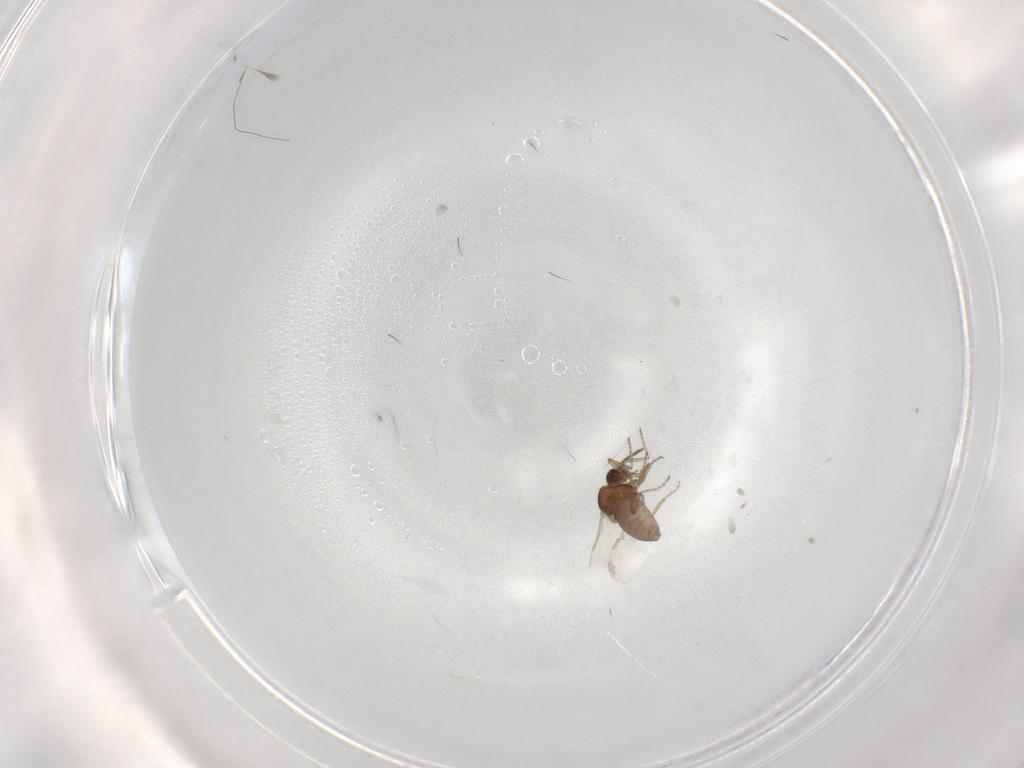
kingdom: Animalia
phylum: Arthropoda
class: Insecta
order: Diptera
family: Ceratopogonidae
